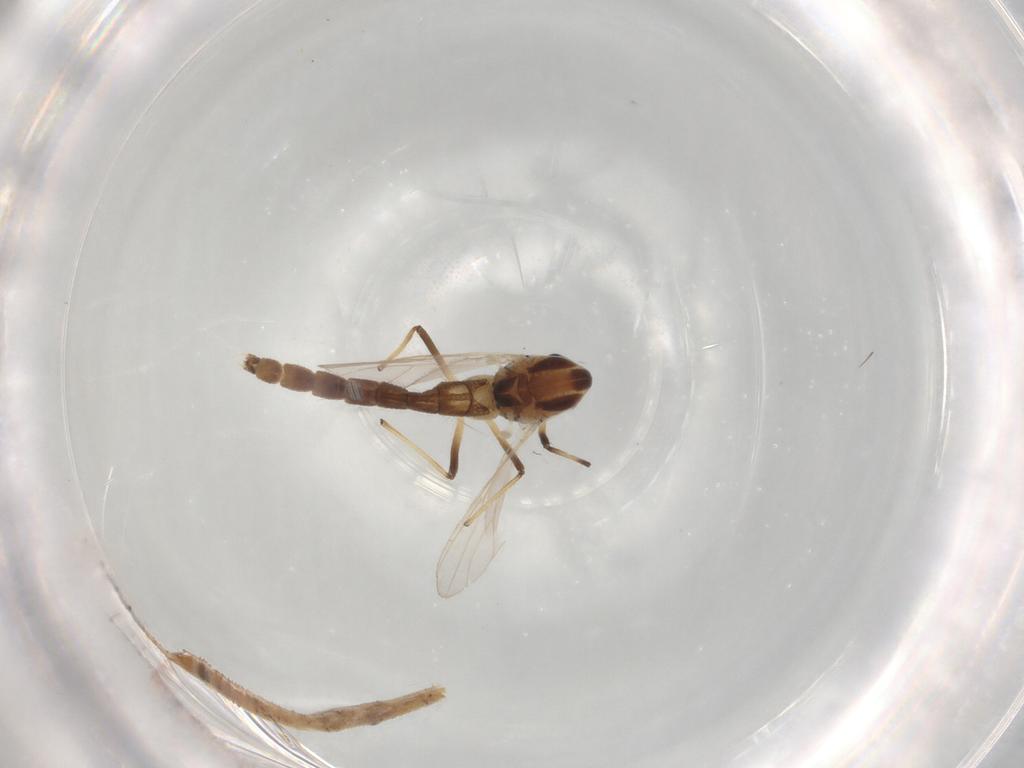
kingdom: Animalia
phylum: Arthropoda
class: Insecta
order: Diptera
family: Chloropidae
